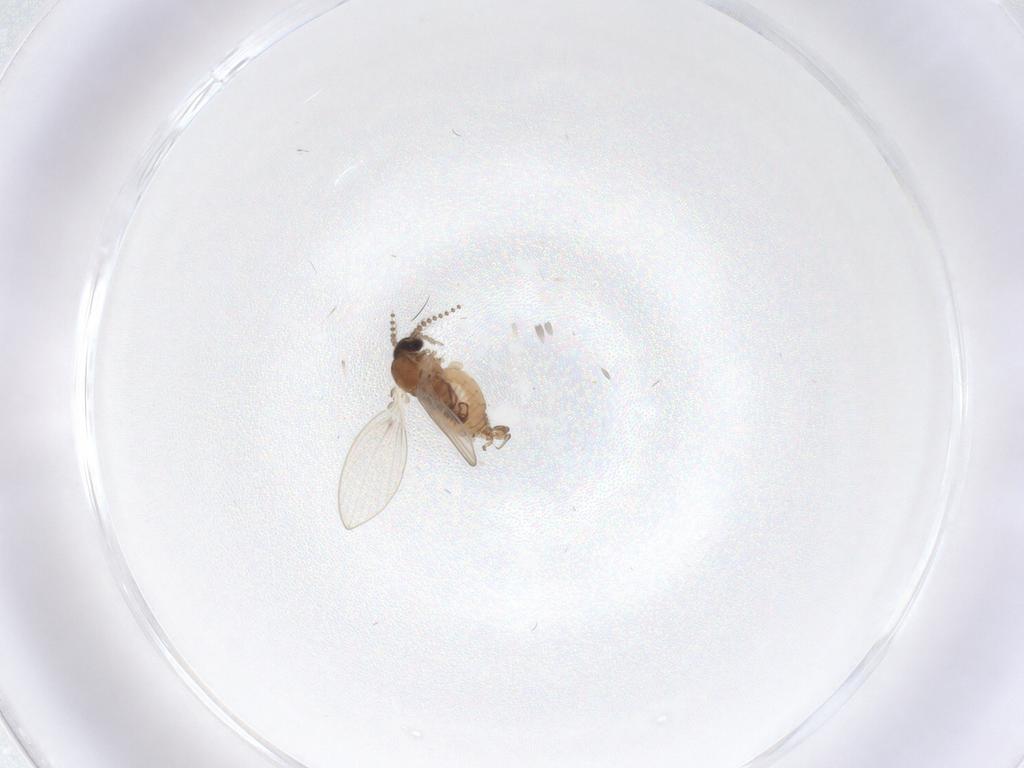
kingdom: Animalia
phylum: Arthropoda
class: Insecta
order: Diptera
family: Psychodidae
